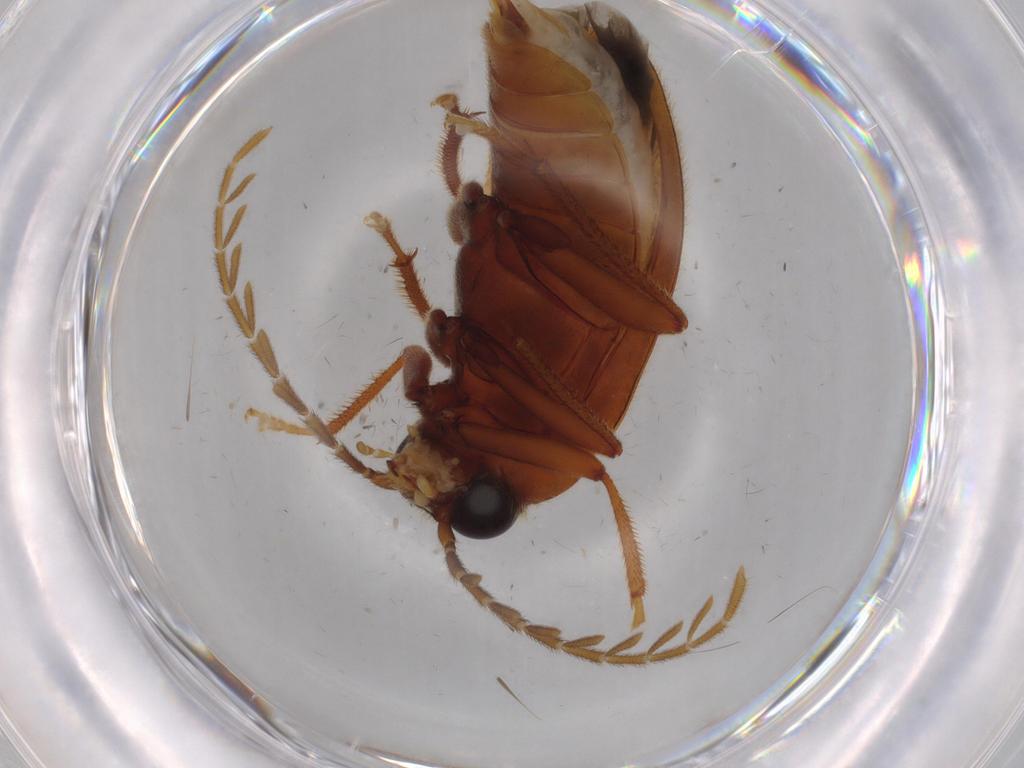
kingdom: Animalia
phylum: Arthropoda
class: Insecta
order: Coleoptera
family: Ptilodactylidae
